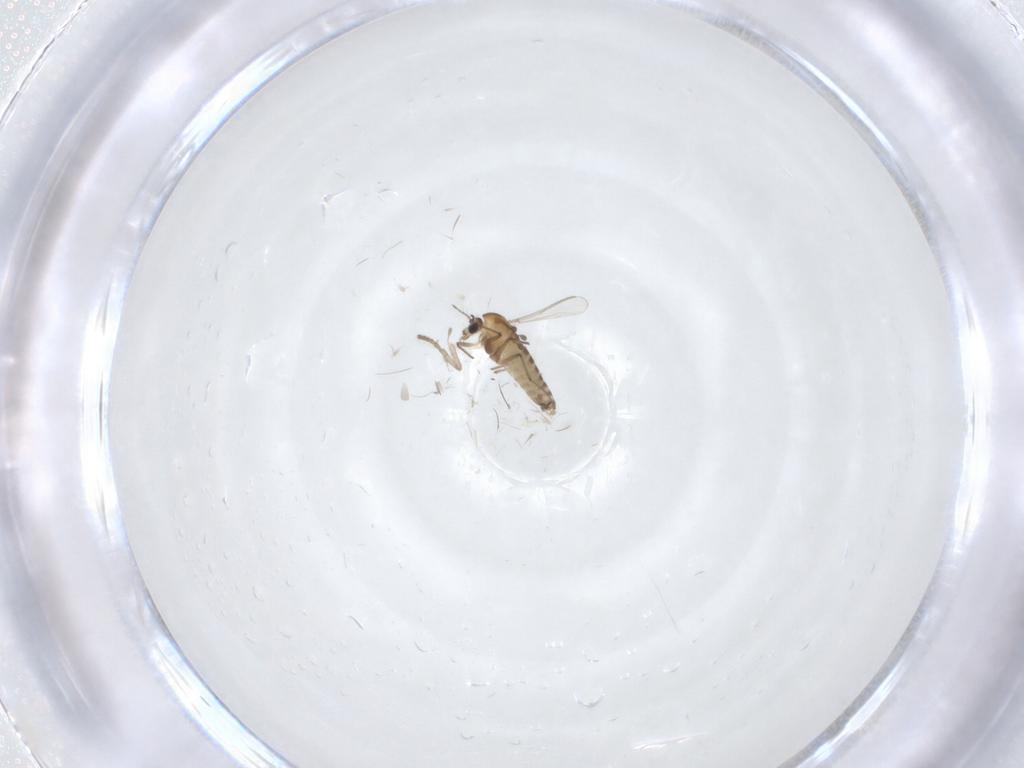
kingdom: Animalia
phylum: Arthropoda
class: Insecta
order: Diptera
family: Chironomidae
